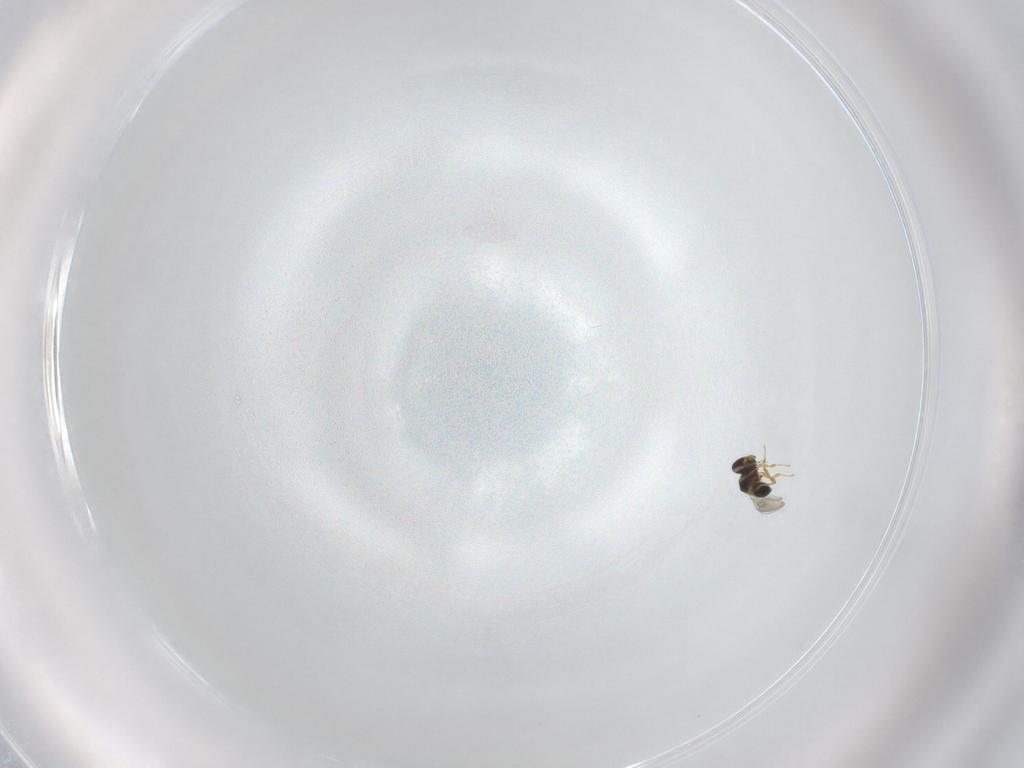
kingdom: Animalia
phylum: Arthropoda
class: Insecta
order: Hymenoptera
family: Platygastridae
